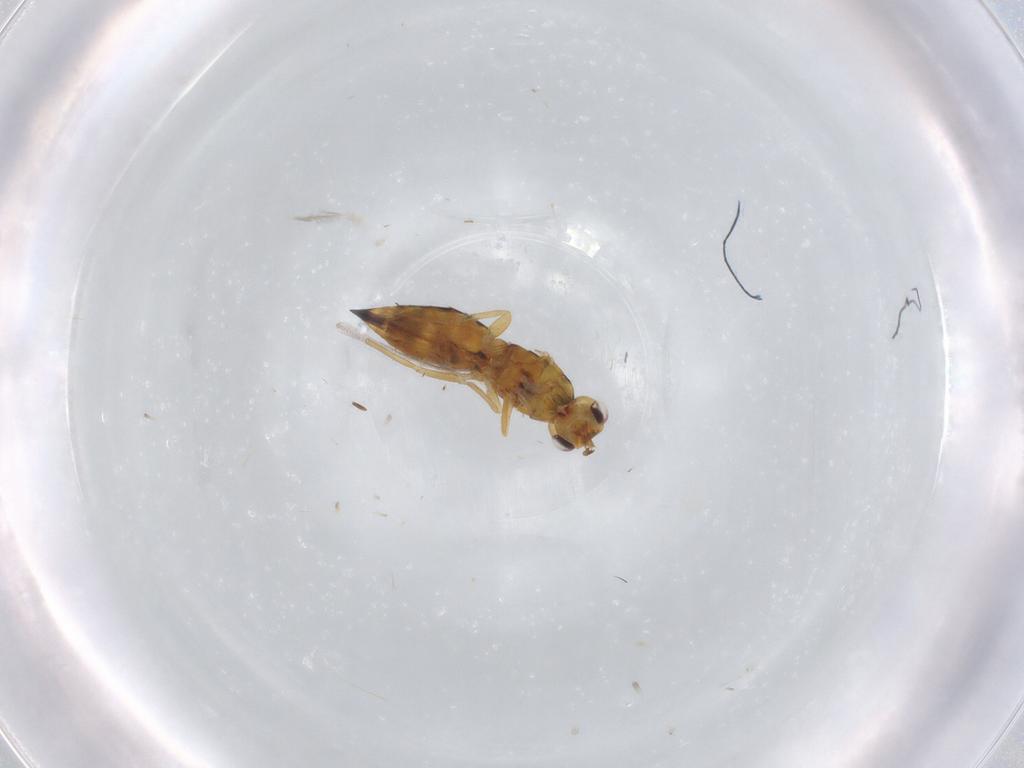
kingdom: Animalia
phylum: Arthropoda
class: Insecta
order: Hymenoptera
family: Eulophidae
